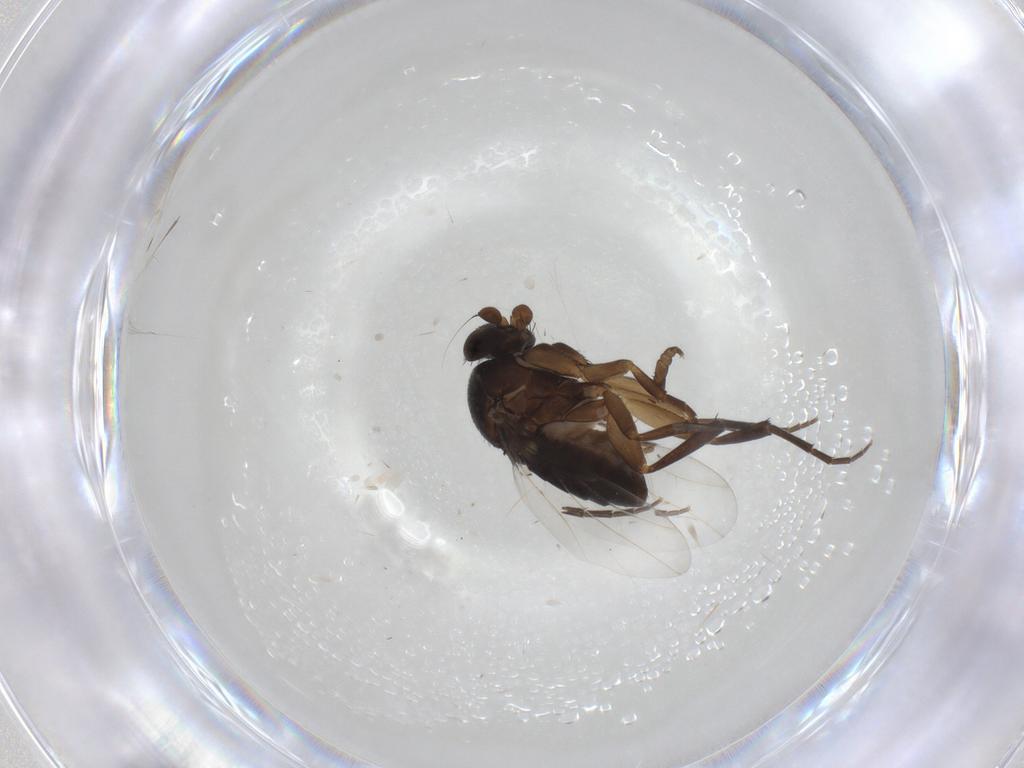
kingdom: Animalia
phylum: Arthropoda
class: Insecta
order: Diptera
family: Phoridae
